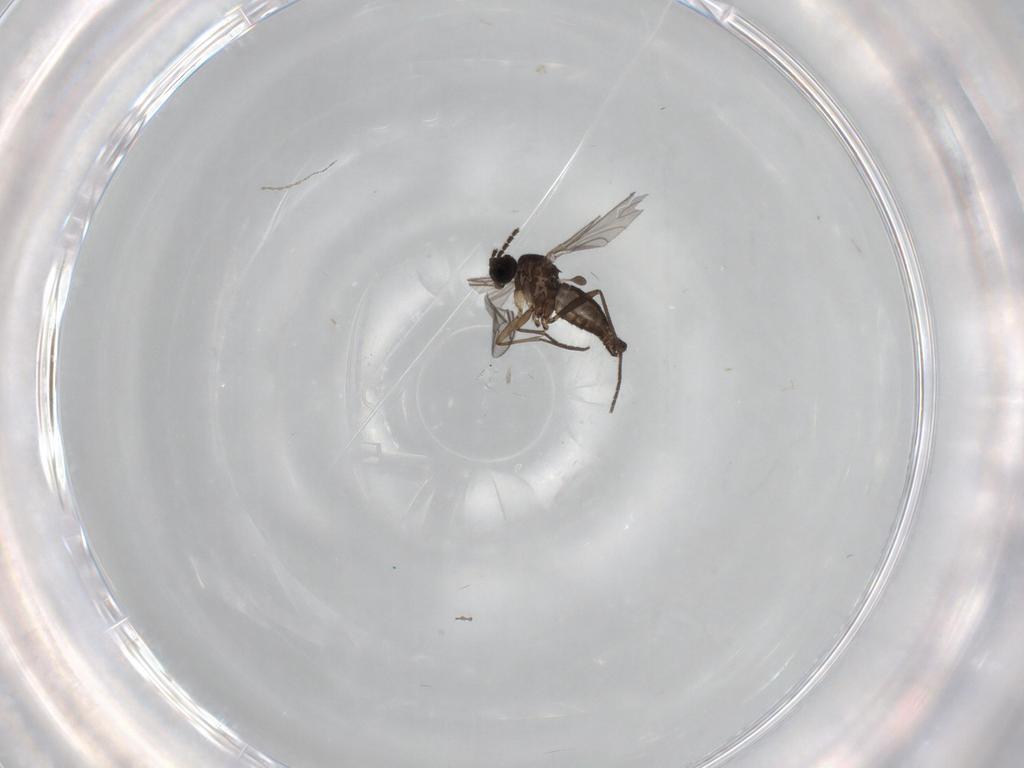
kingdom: Animalia
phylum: Arthropoda
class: Insecta
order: Diptera
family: Sciaridae
